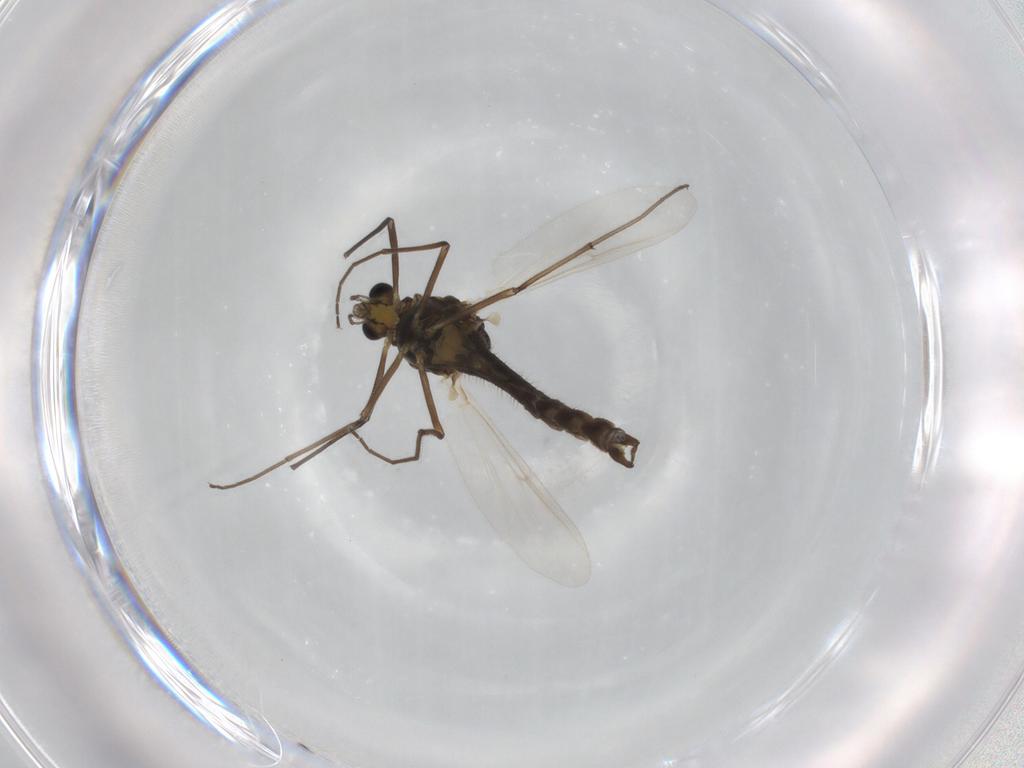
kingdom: Animalia
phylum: Arthropoda
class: Insecta
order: Diptera
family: Chironomidae
